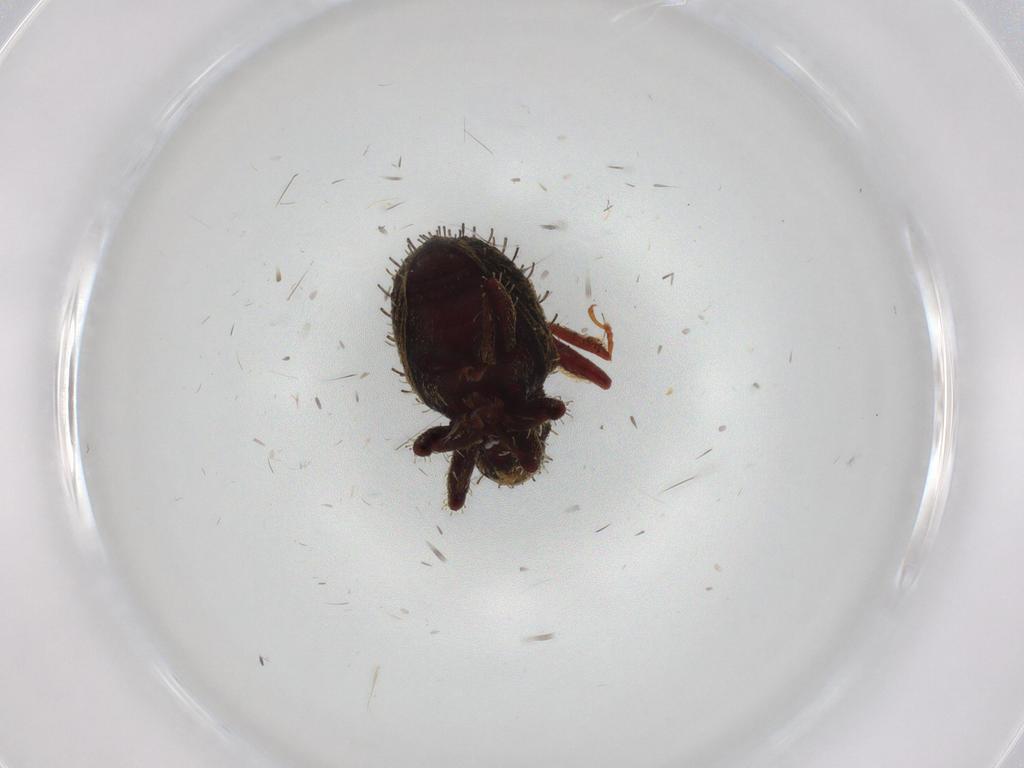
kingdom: Animalia
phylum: Arthropoda
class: Insecta
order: Coleoptera
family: Curculionidae
